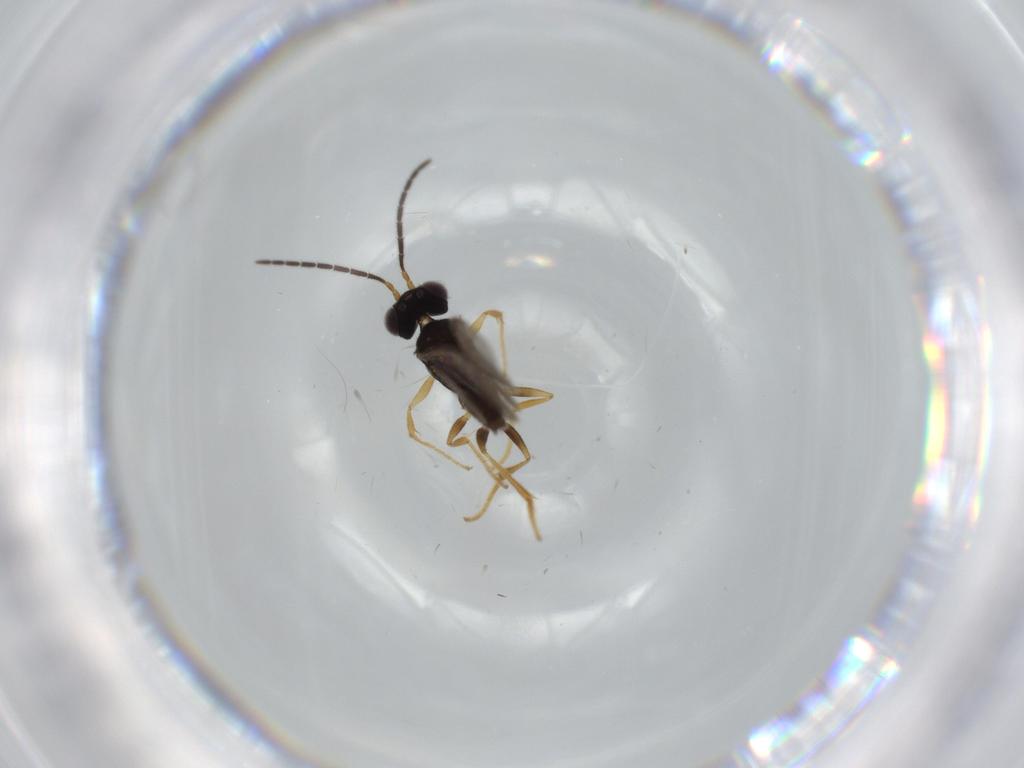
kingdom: Animalia
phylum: Arthropoda
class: Insecta
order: Hymenoptera
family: Dryinidae
